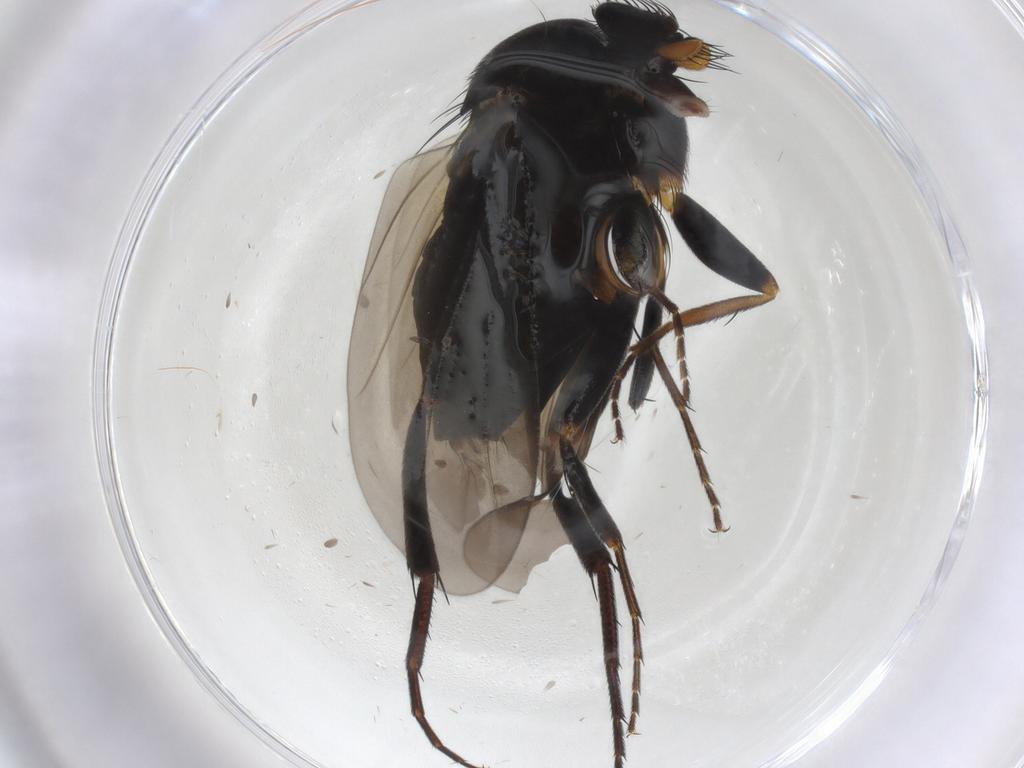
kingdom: Animalia
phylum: Arthropoda
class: Insecta
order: Diptera
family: Phoridae
